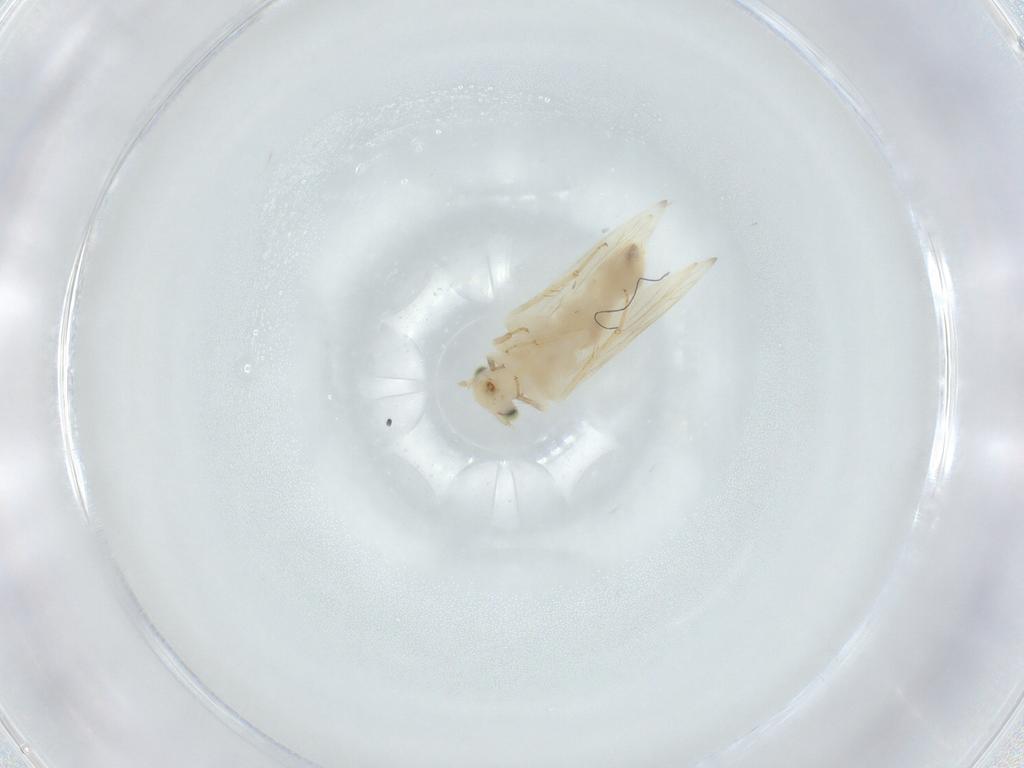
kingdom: Animalia
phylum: Arthropoda
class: Insecta
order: Psocodea
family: Lepidopsocidae
